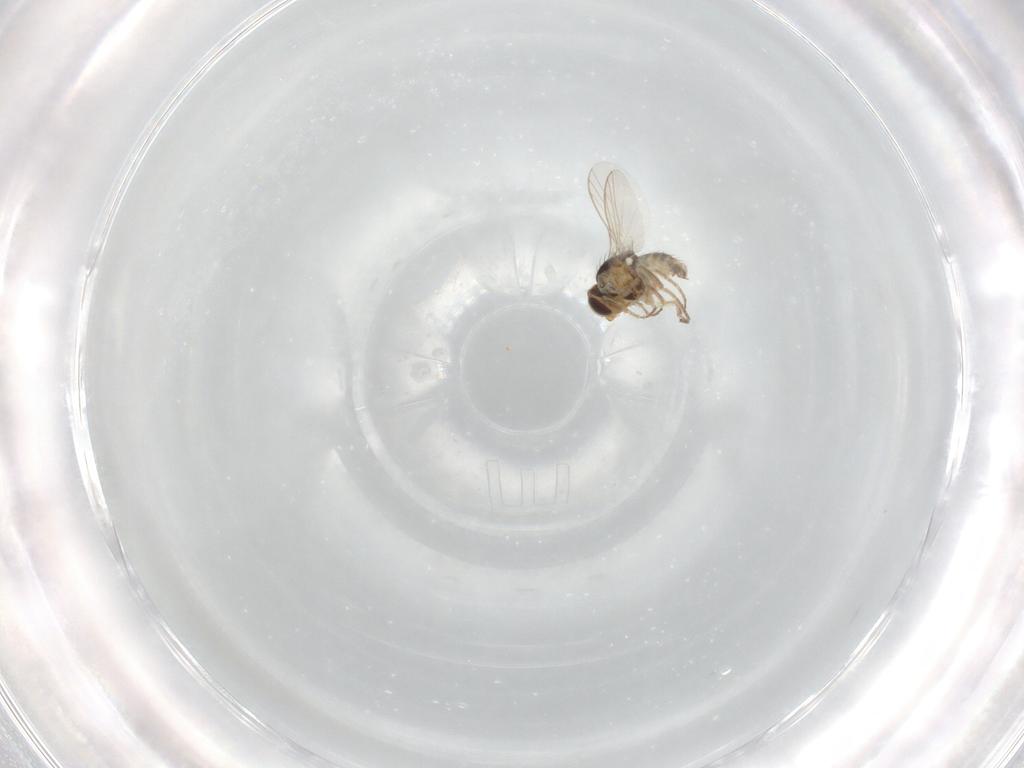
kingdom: Animalia
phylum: Arthropoda
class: Insecta
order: Diptera
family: Agromyzidae
